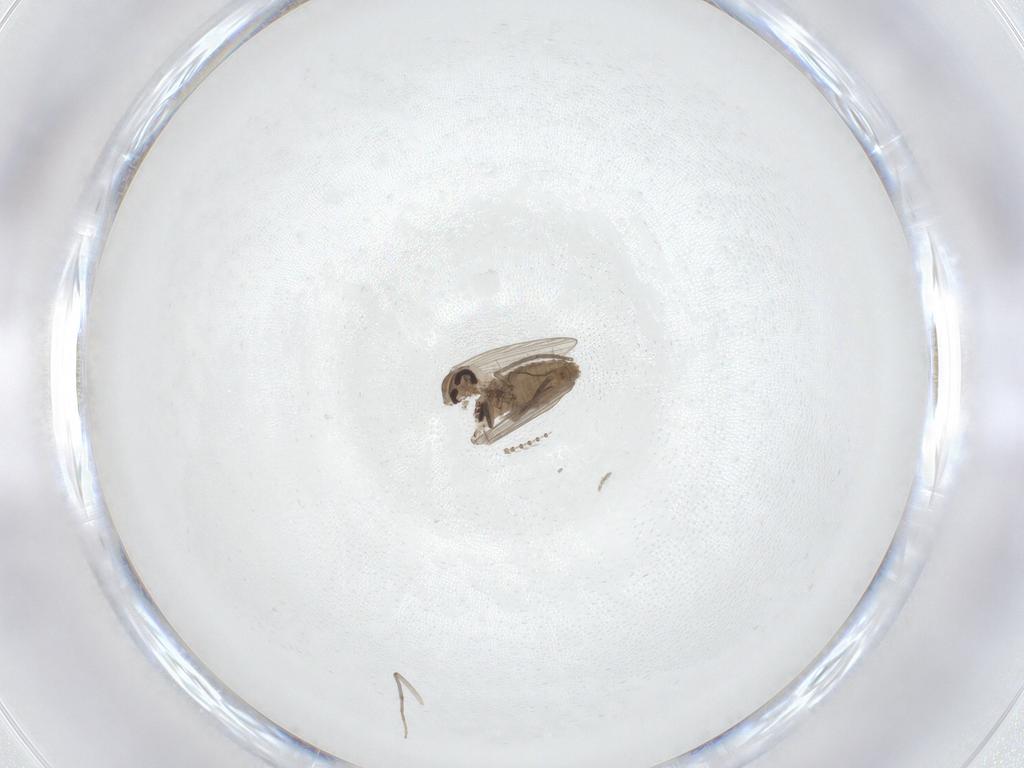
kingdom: Animalia
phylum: Arthropoda
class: Insecta
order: Diptera
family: Psychodidae
